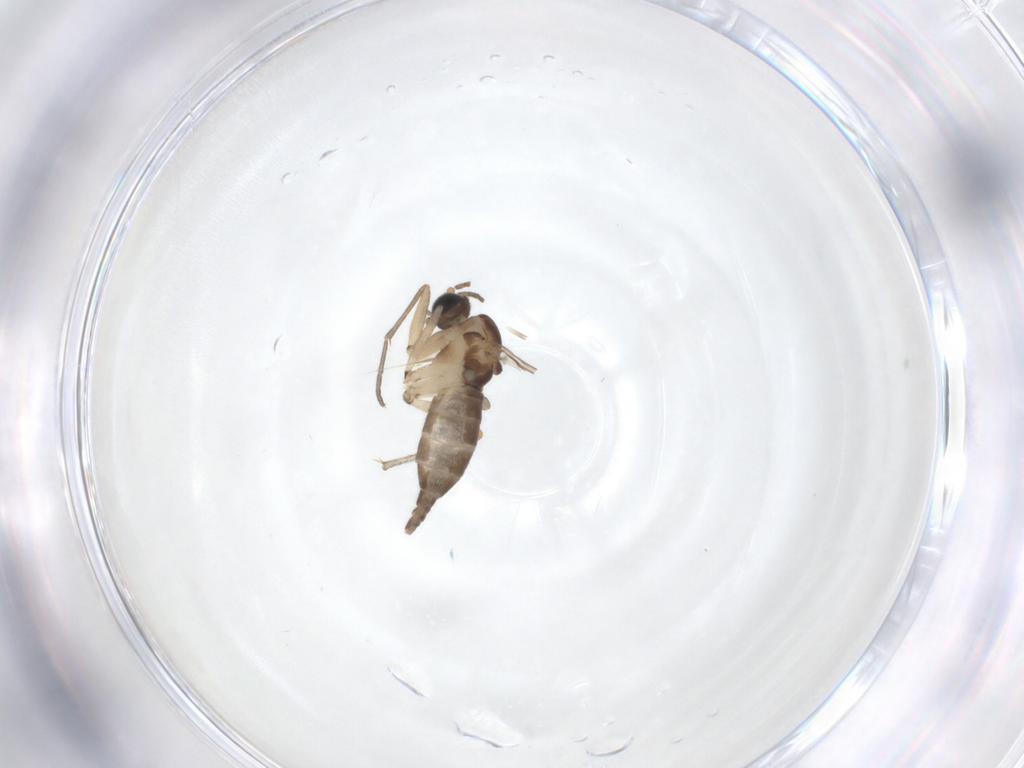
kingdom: Animalia
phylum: Arthropoda
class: Insecta
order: Diptera
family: Sciaridae
